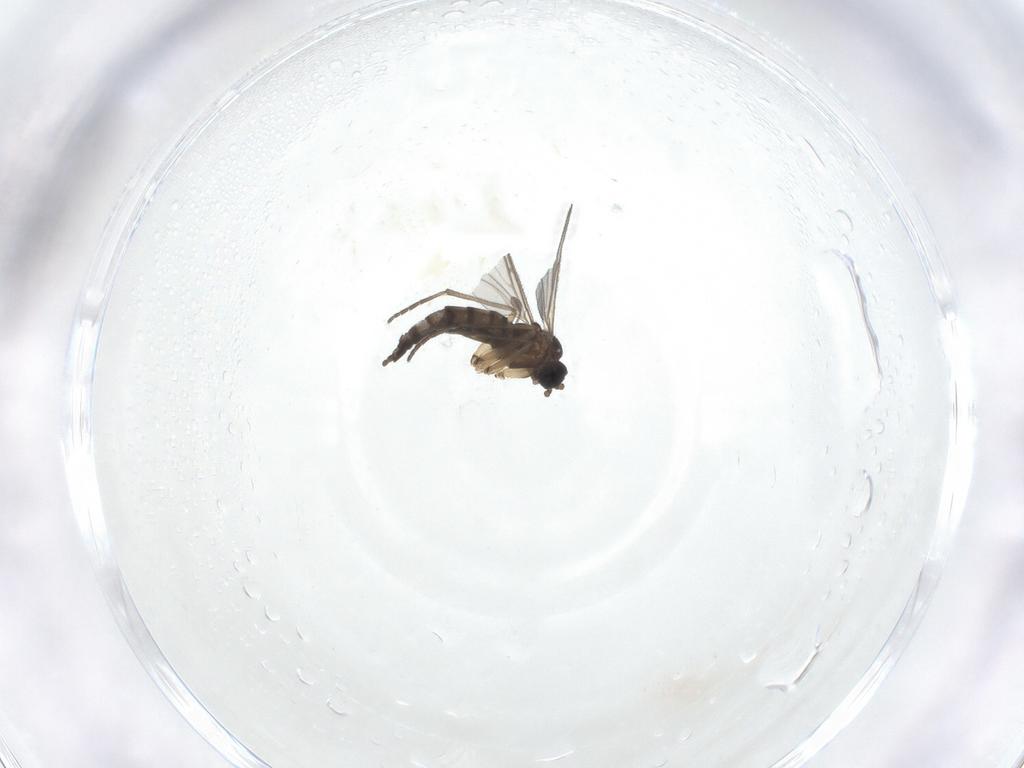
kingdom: Animalia
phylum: Arthropoda
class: Insecta
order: Diptera
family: Sciaridae
